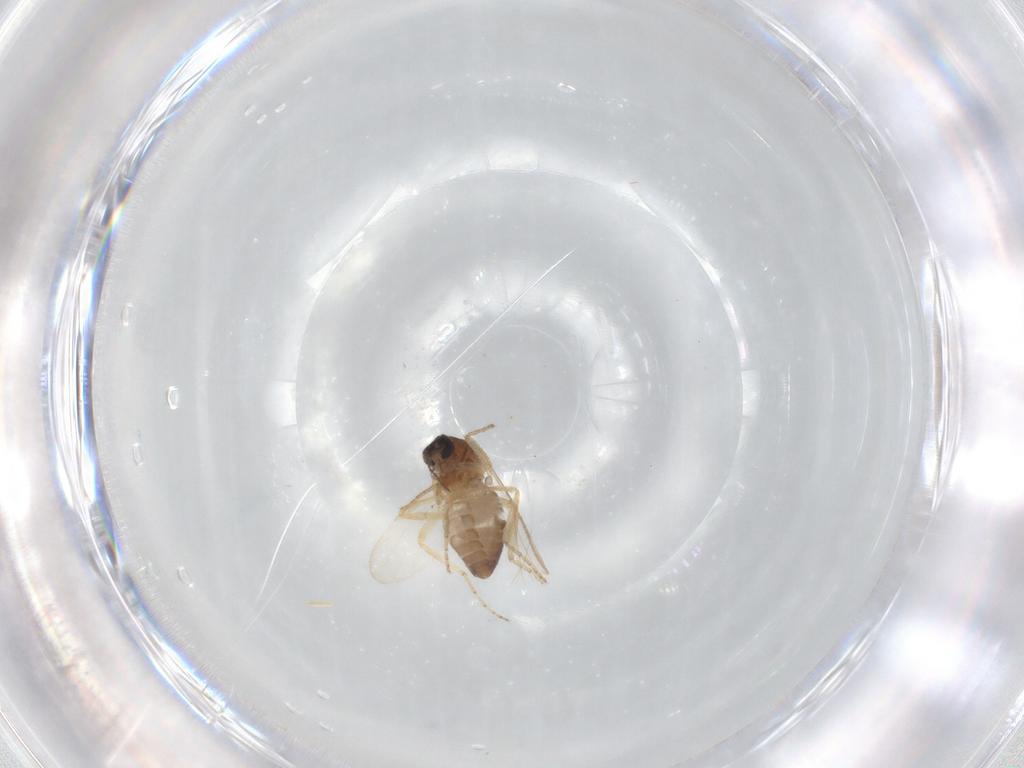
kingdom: Animalia
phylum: Arthropoda
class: Insecta
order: Diptera
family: Ceratopogonidae
